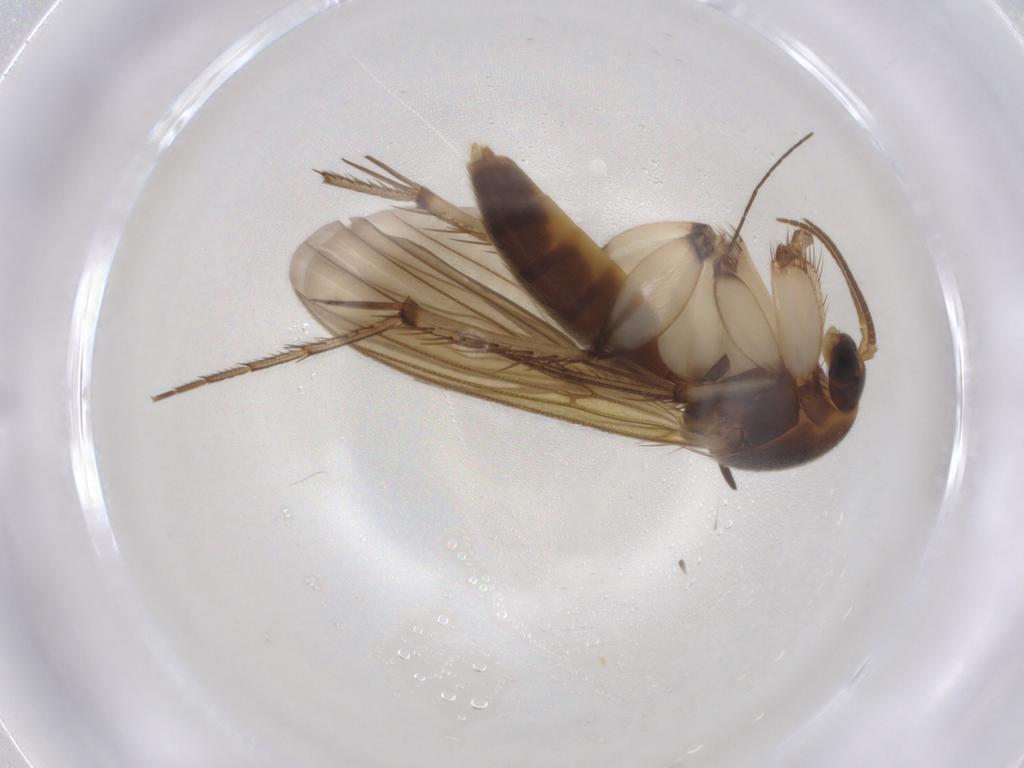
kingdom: Animalia
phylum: Arthropoda
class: Insecta
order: Diptera
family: Mycetophilidae
